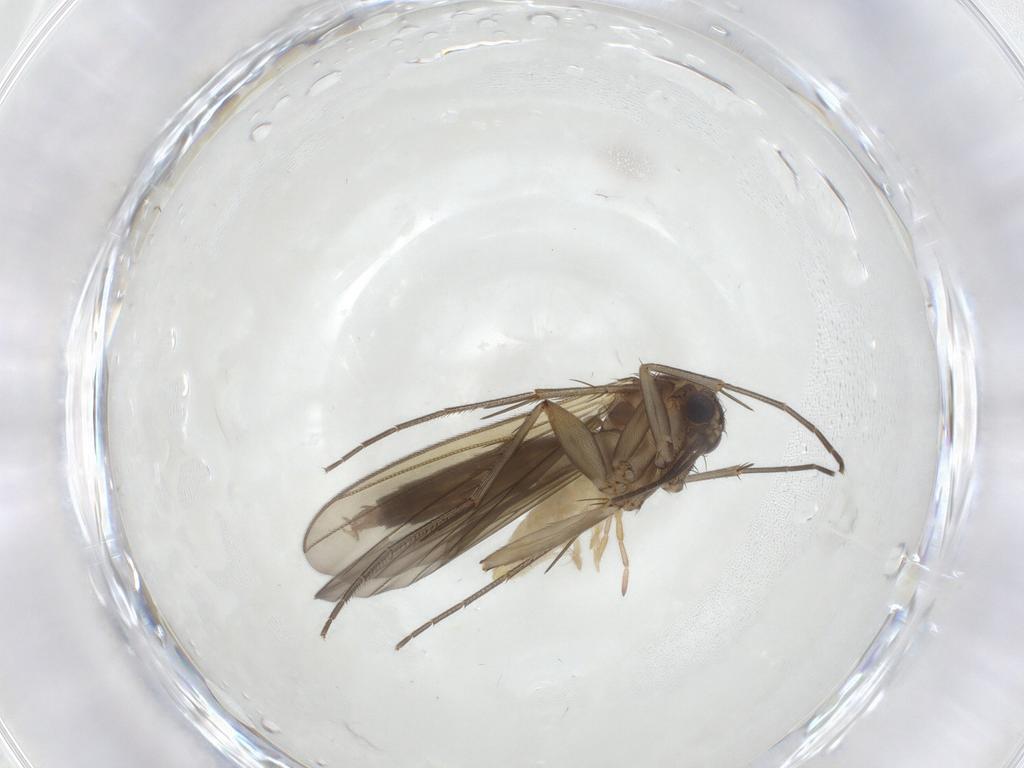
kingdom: Animalia
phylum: Arthropoda
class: Insecta
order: Diptera
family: Mycetophilidae
